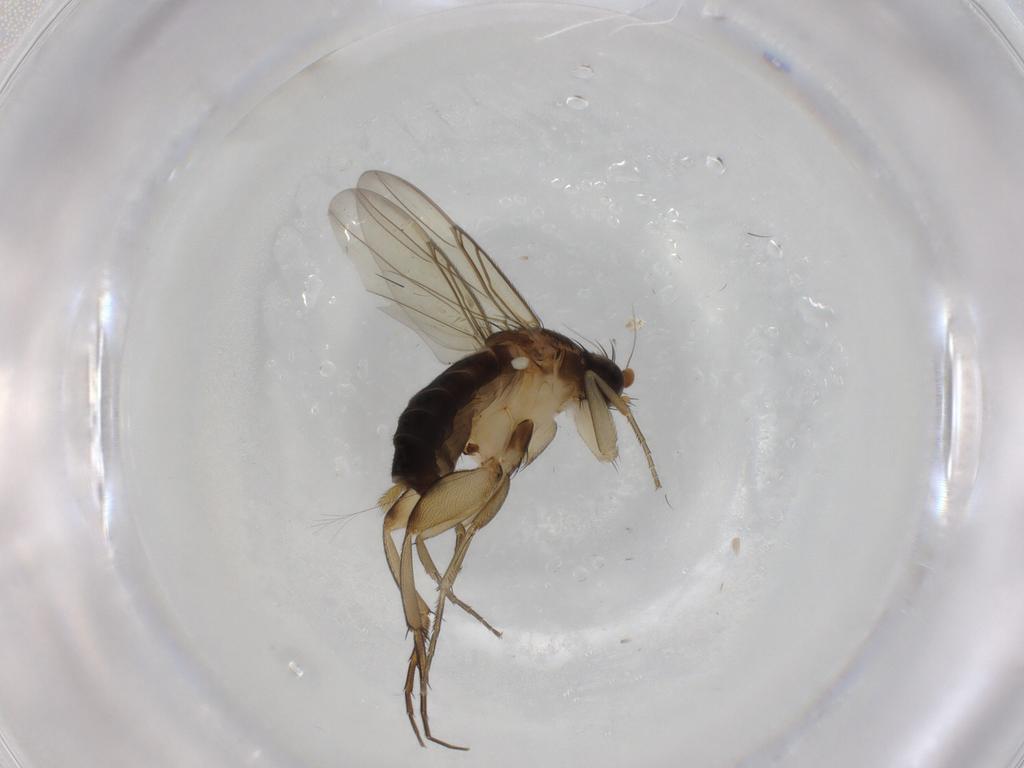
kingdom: Animalia
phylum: Arthropoda
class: Insecta
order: Diptera
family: Phoridae
